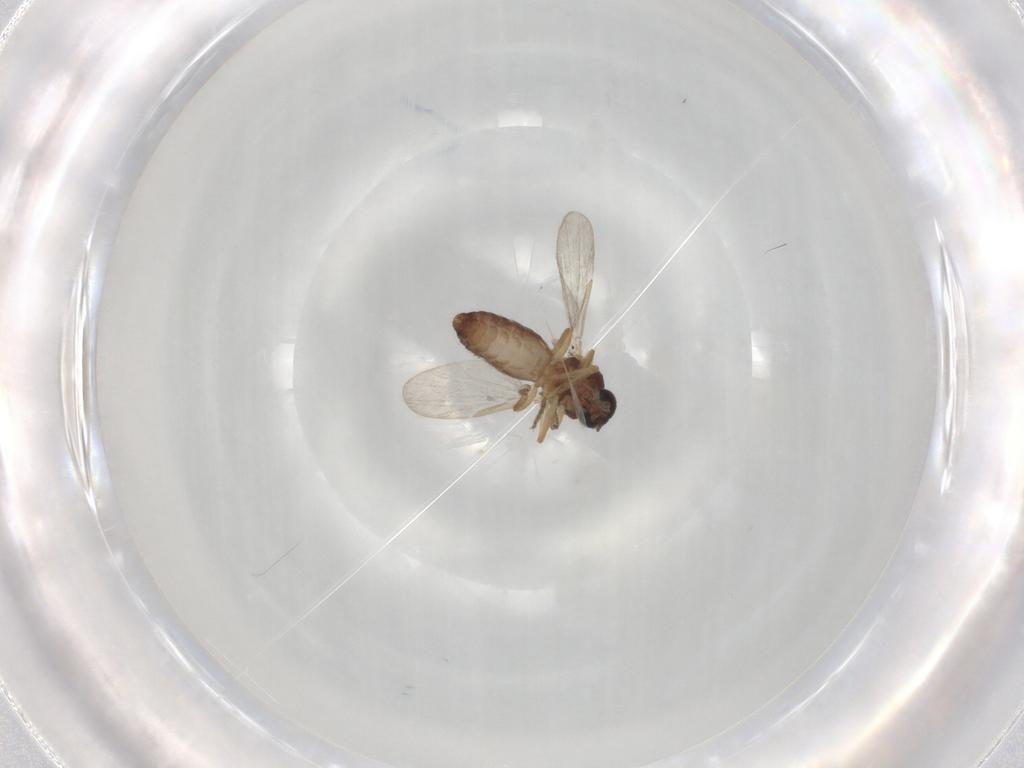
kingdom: Animalia
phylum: Arthropoda
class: Insecta
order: Diptera
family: Ceratopogonidae
